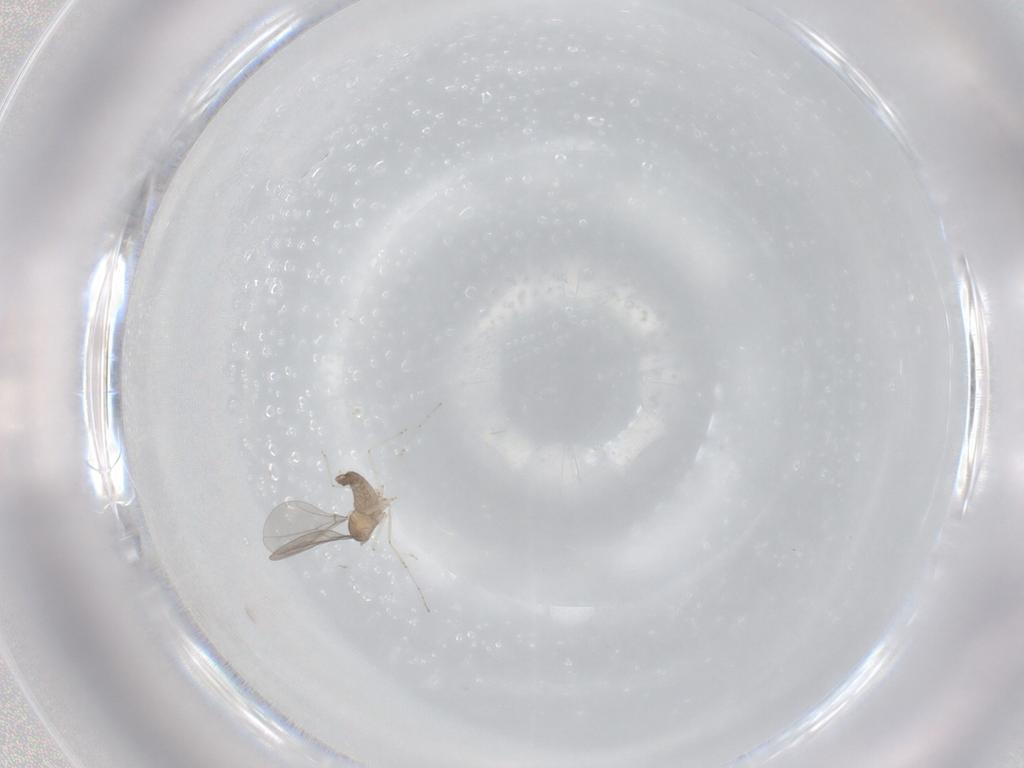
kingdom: Animalia
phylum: Arthropoda
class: Insecta
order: Diptera
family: Cecidomyiidae
